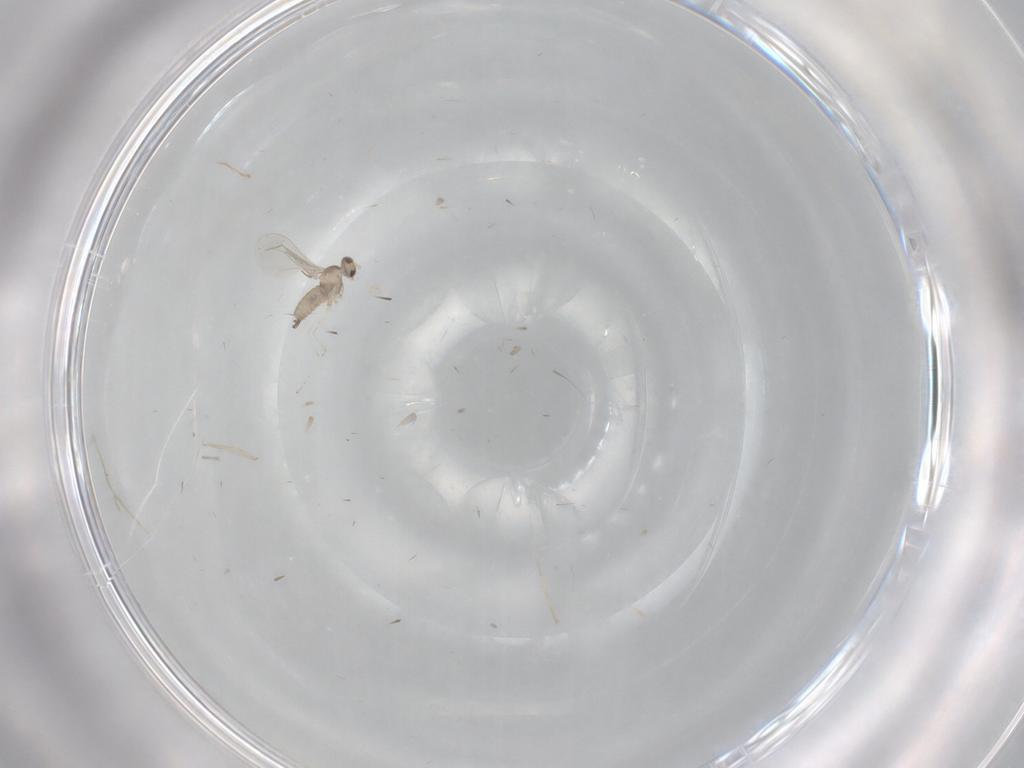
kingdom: Animalia
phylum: Arthropoda
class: Insecta
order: Diptera
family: Cecidomyiidae
